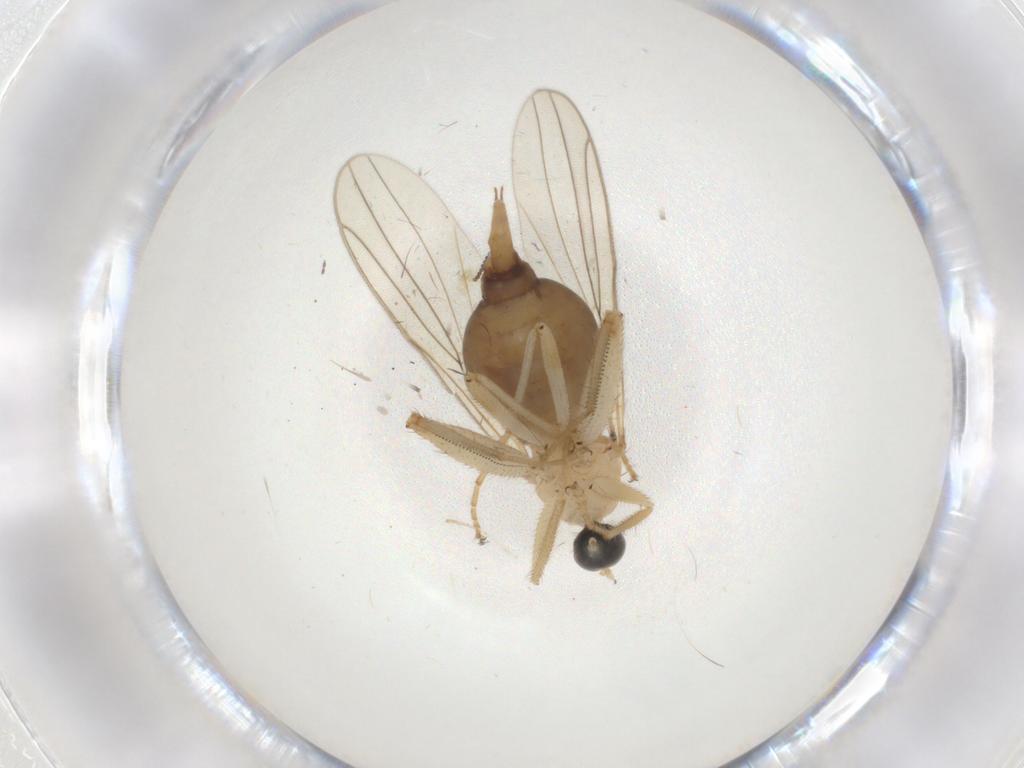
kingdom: Animalia
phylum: Arthropoda
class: Insecta
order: Diptera
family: Hybotidae
